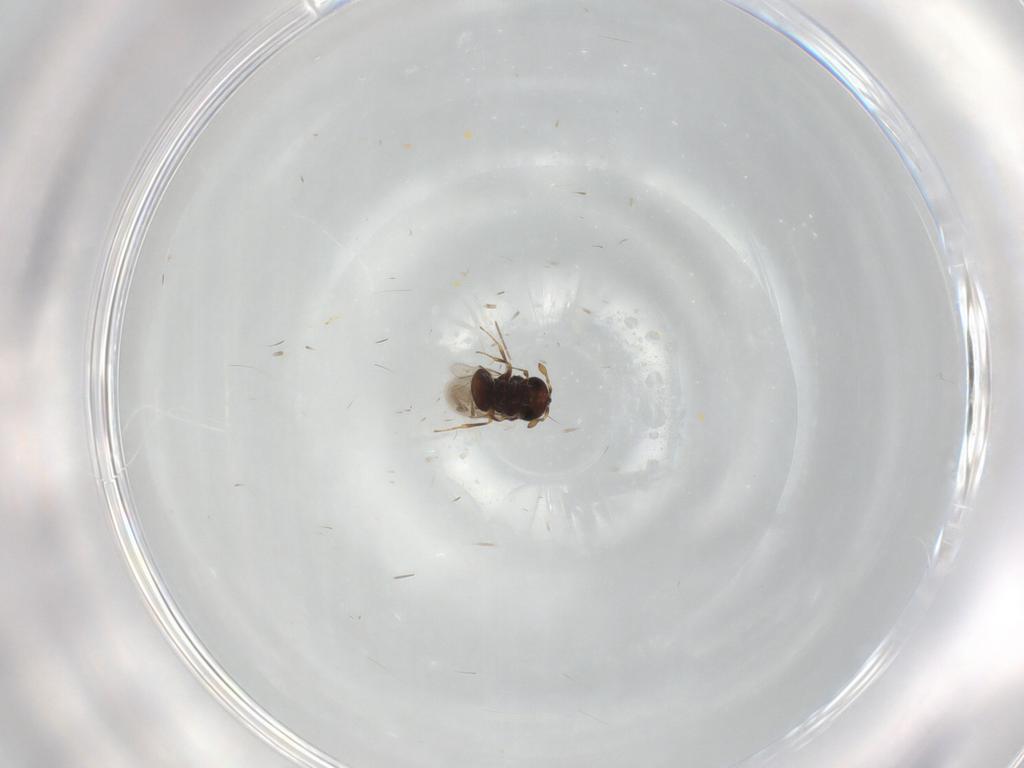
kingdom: Animalia
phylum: Arthropoda
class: Insecta
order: Hymenoptera
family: Scelionidae
